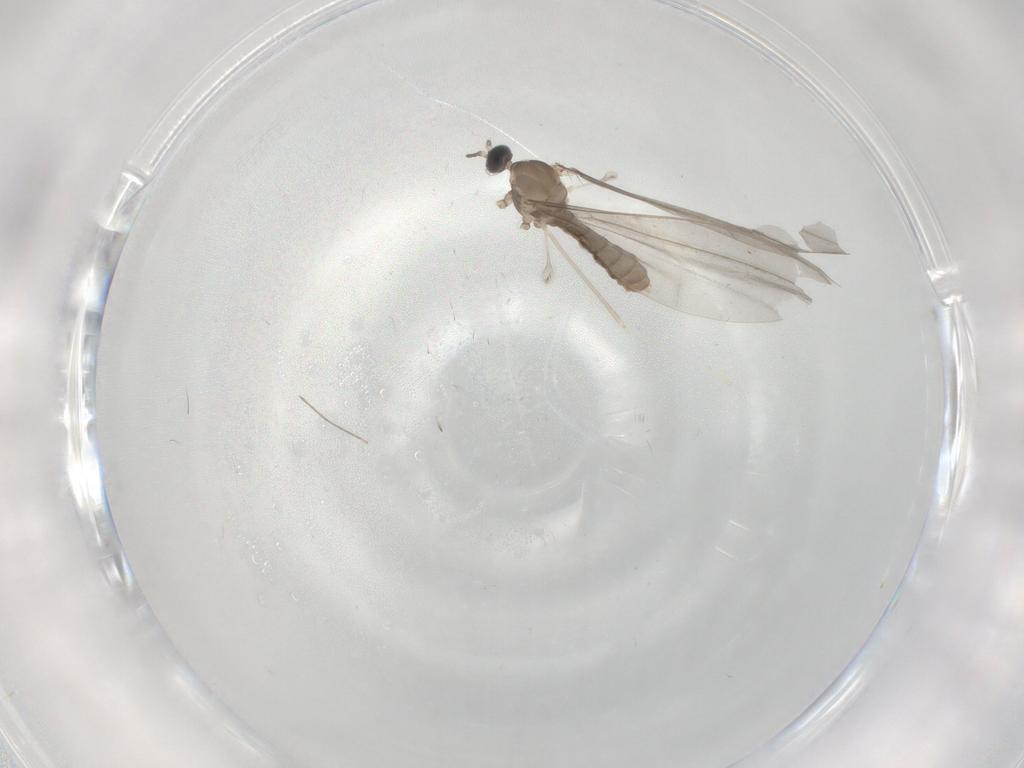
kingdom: Animalia
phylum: Arthropoda
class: Insecta
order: Diptera
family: Cecidomyiidae
